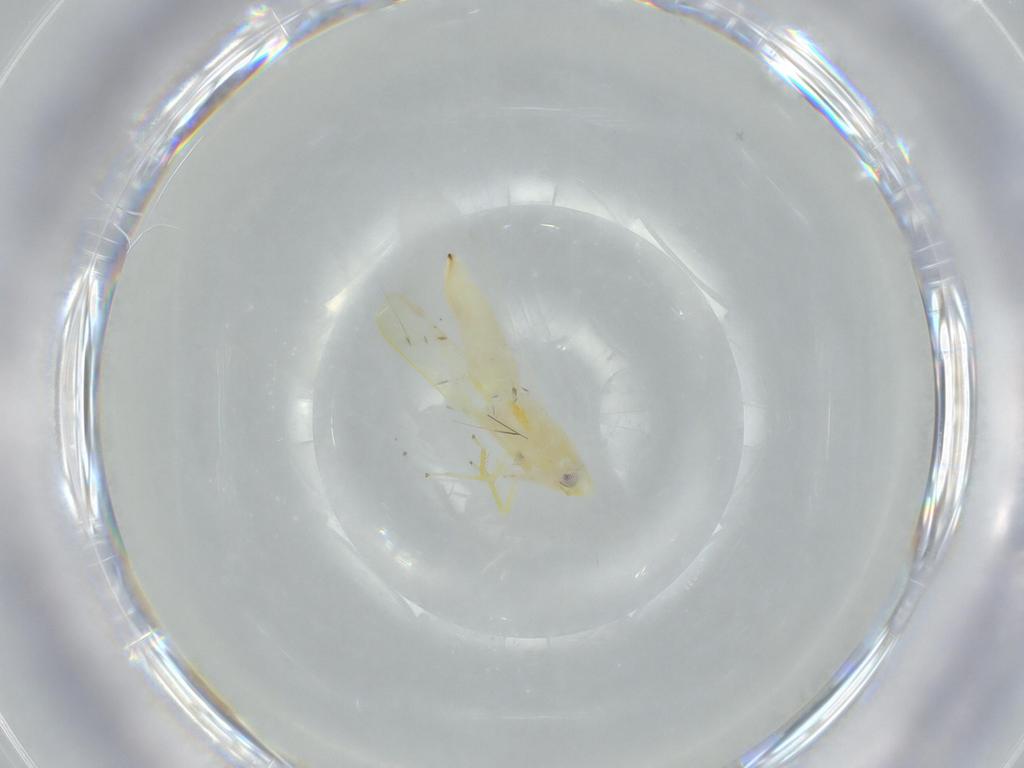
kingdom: Animalia
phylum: Arthropoda
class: Insecta
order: Hemiptera
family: Cicadellidae
